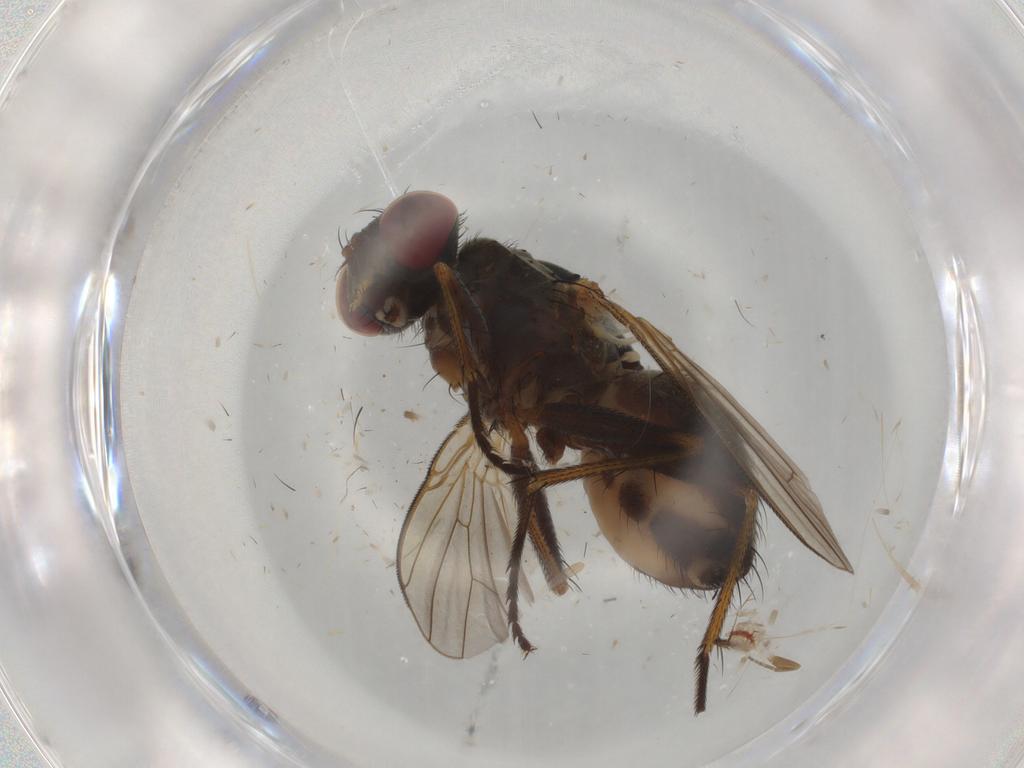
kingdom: Animalia
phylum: Arthropoda
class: Insecta
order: Diptera
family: Muscidae
